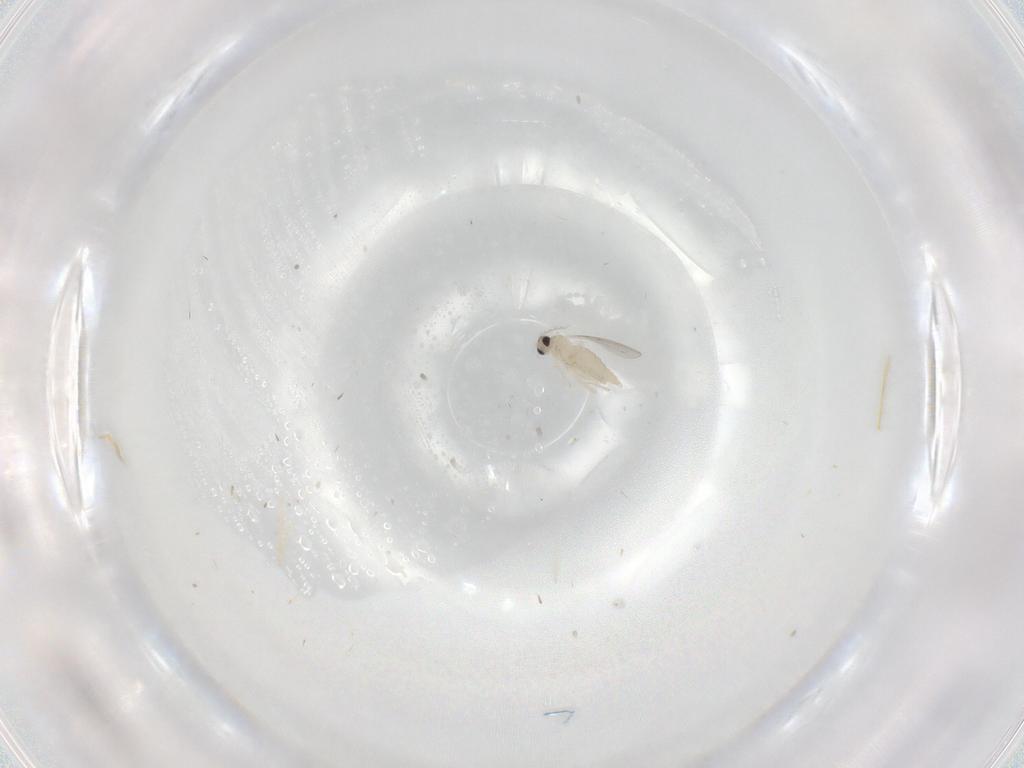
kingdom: Animalia
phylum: Arthropoda
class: Insecta
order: Diptera
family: Cecidomyiidae
